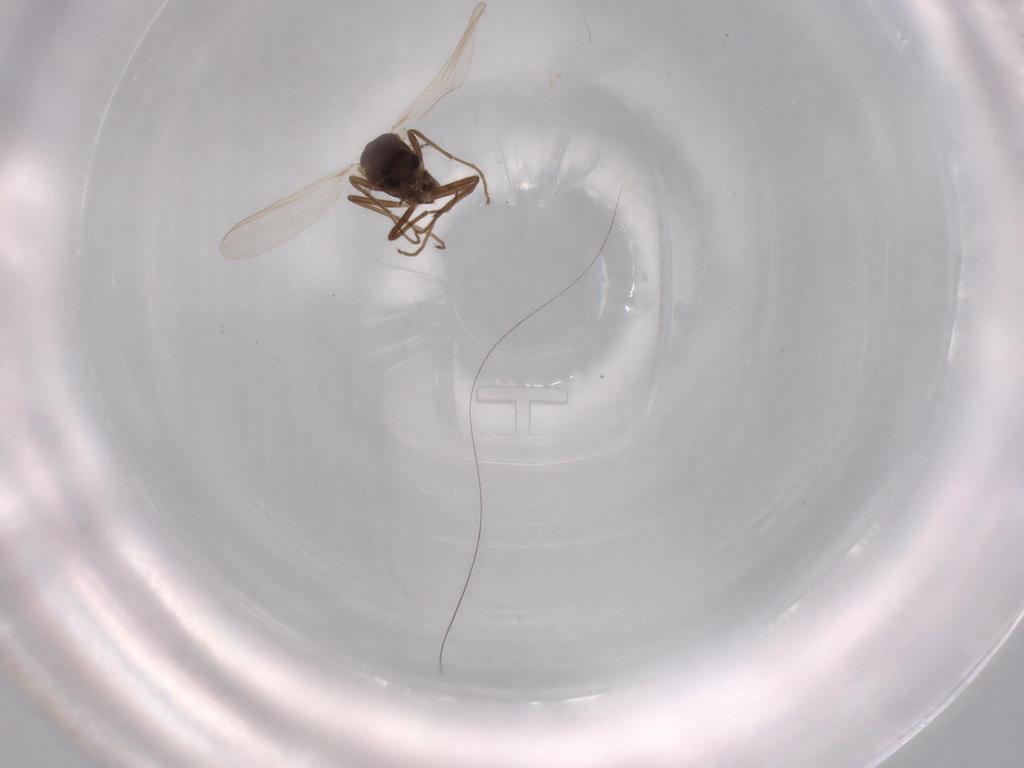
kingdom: Animalia
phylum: Arthropoda
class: Insecta
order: Diptera
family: Chironomidae
